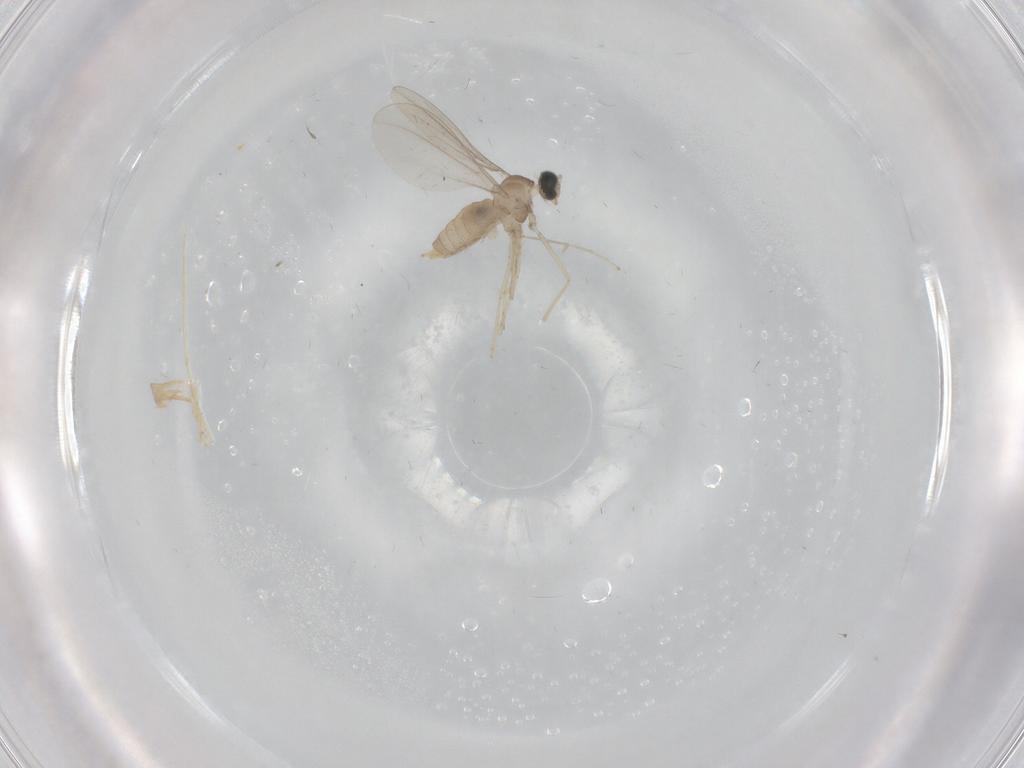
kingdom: Animalia
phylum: Arthropoda
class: Insecta
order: Diptera
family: Cecidomyiidae
